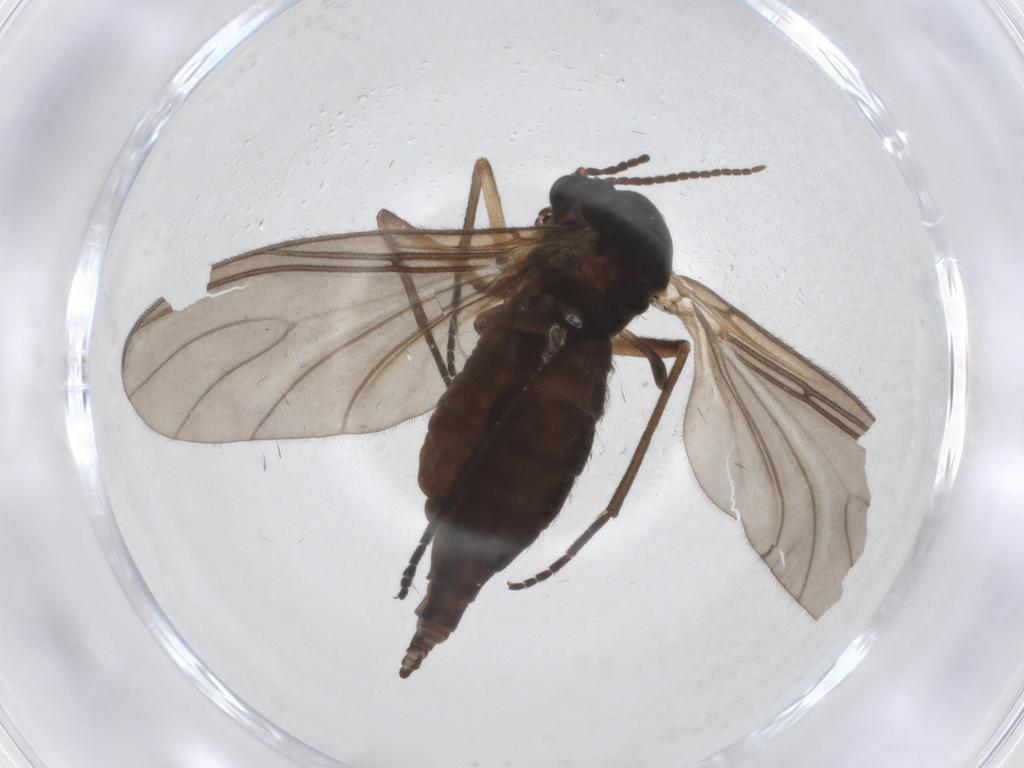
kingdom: Animalia
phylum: Arthropoda
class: Insecta
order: Diptera
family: Sciaridae
